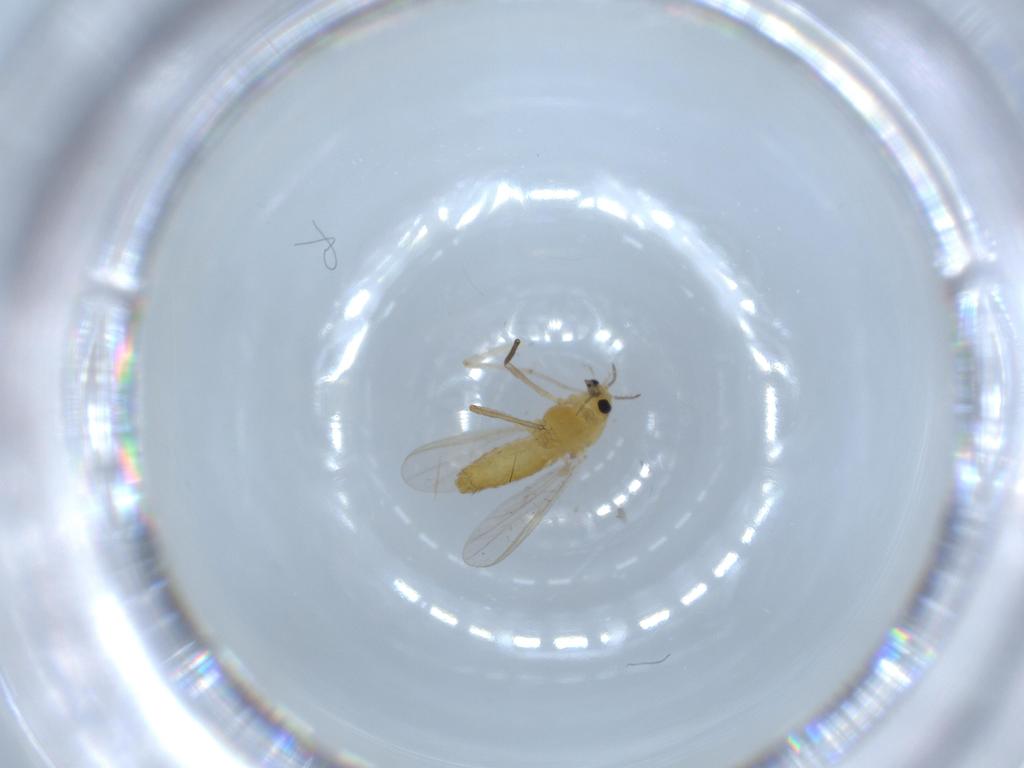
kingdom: Animalia
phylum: Arthropoda
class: Insecta
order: Diptera
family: Chironomidae
